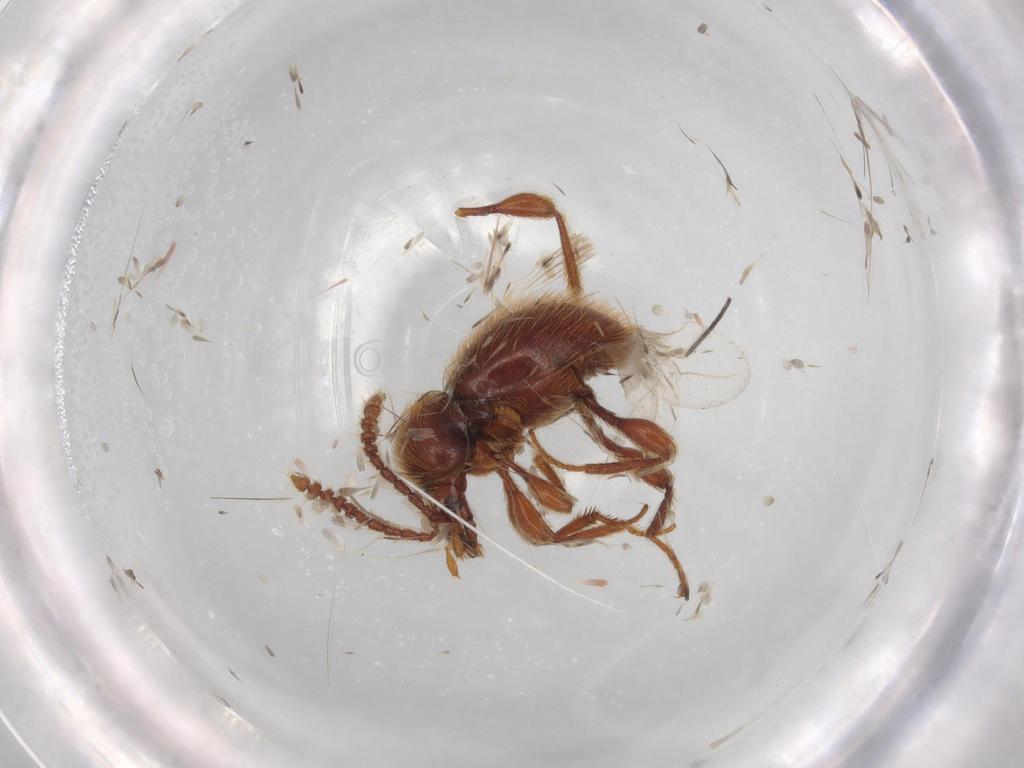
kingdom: Animalia
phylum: Arthropoda
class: Insecta
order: Coleoptera
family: Staphylinidae
